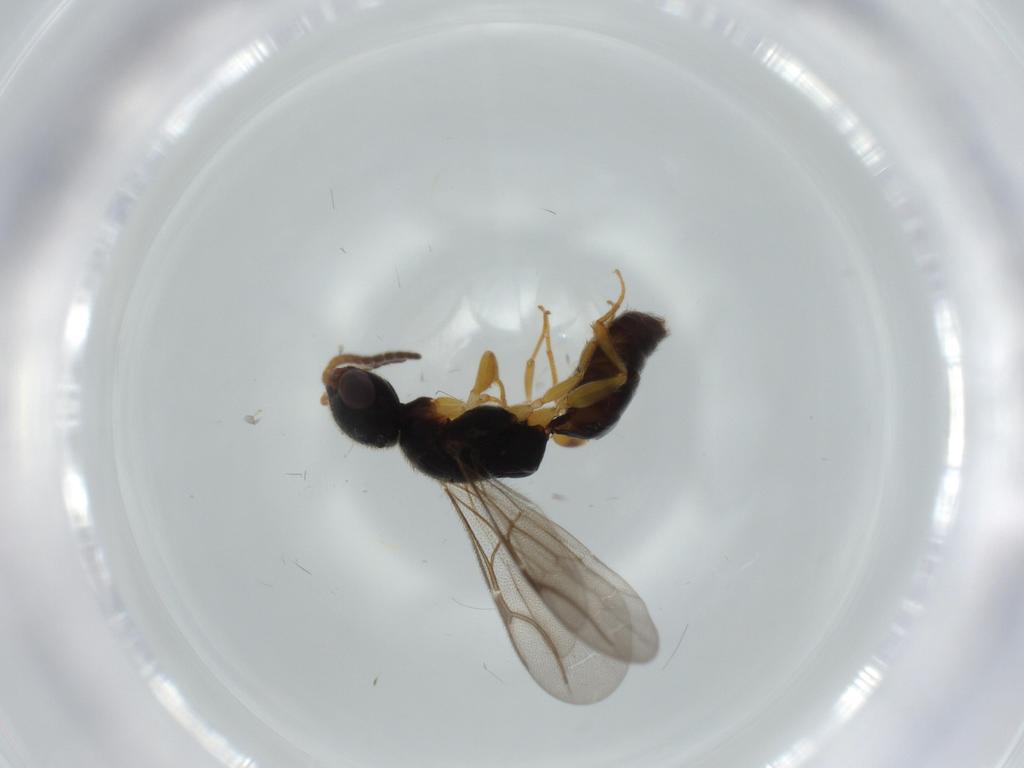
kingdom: Animalia
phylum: Arthropoda
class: Insecta
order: Hymenoptera
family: Bethylidae
